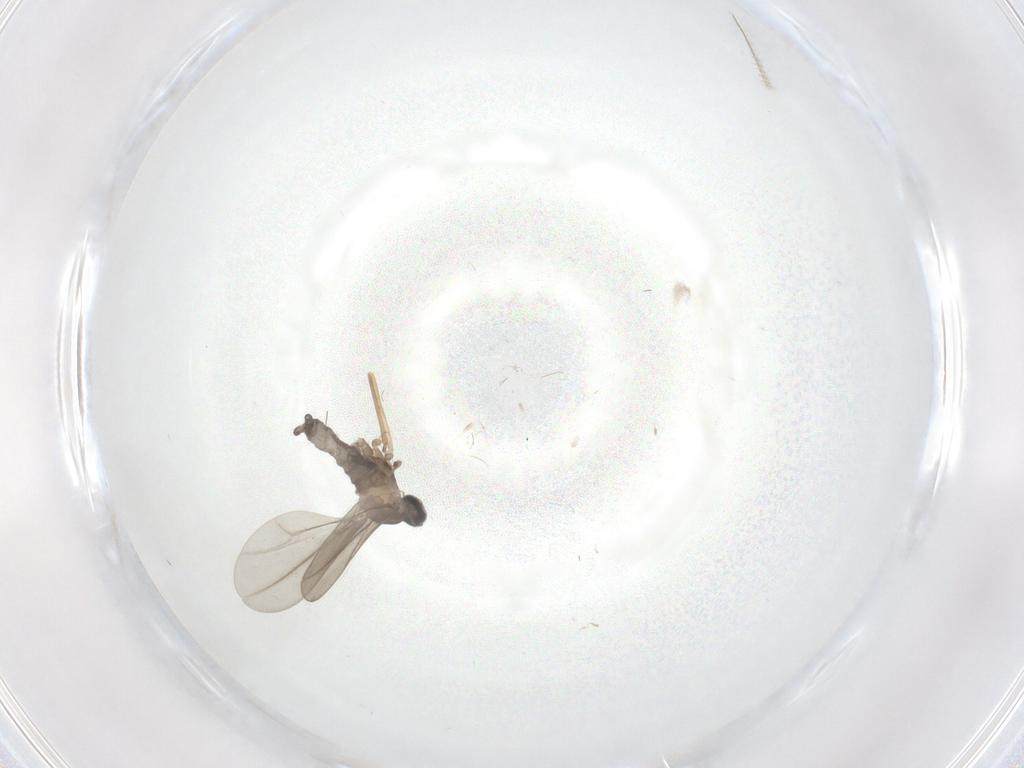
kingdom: Animalia
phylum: Arthropoda
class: Insecta
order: Diptera
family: Cecidomyiidae
